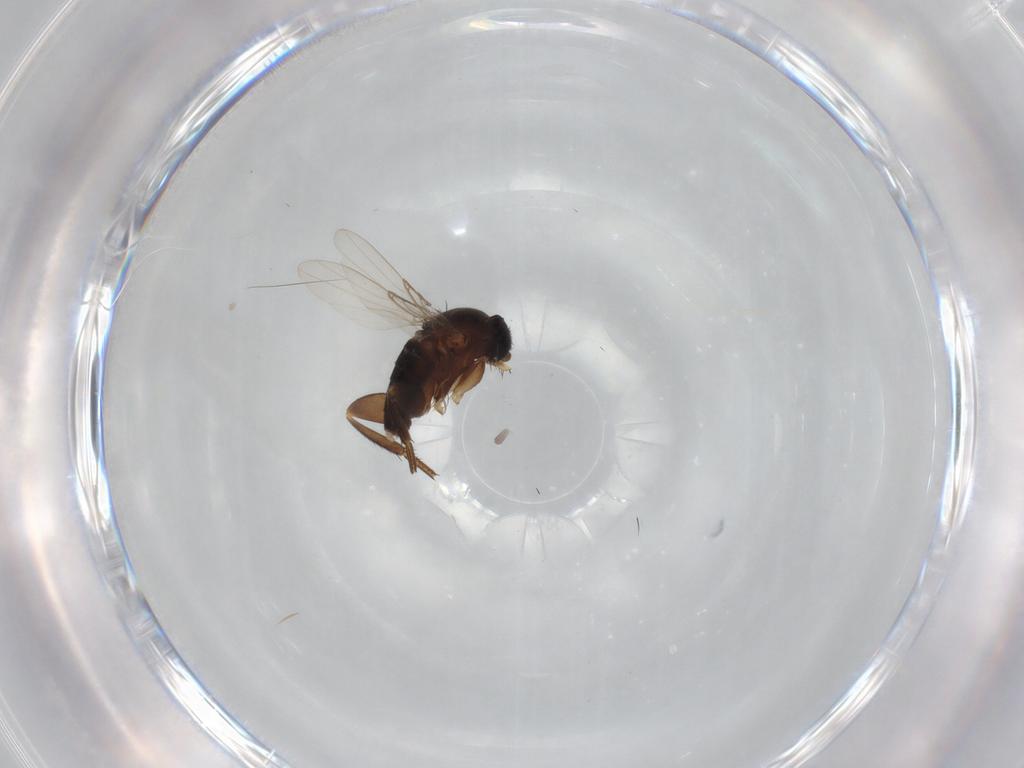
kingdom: Animalia
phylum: Arthropoda
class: Insecta
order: Diptera
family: Phoridae
